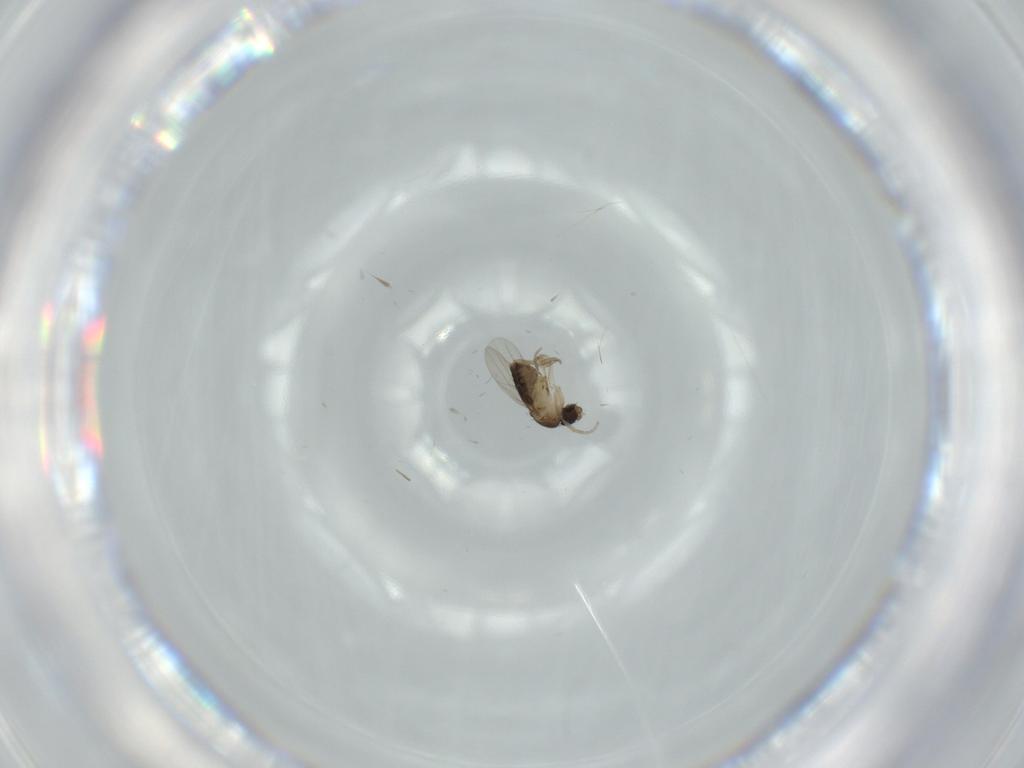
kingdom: Animalia
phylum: Arthropoda
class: Insecta
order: Diptera
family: Phoridae
